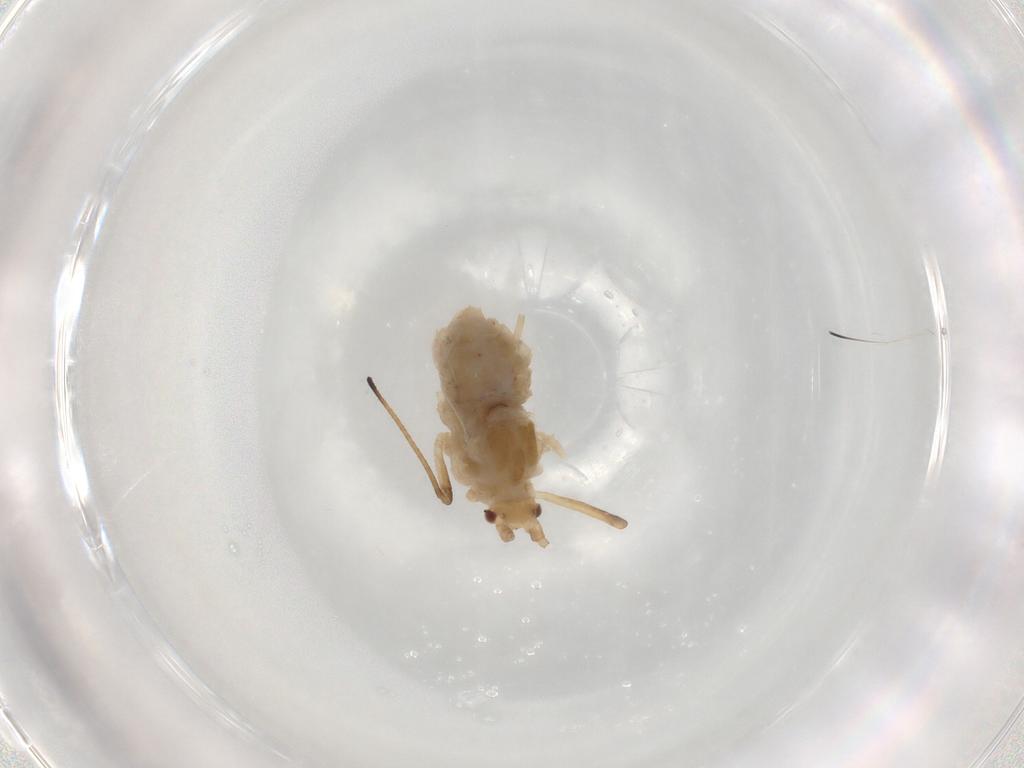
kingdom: Animalia
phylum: Arthropoda
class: Insecta
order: Hemiptera
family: Aphididae
